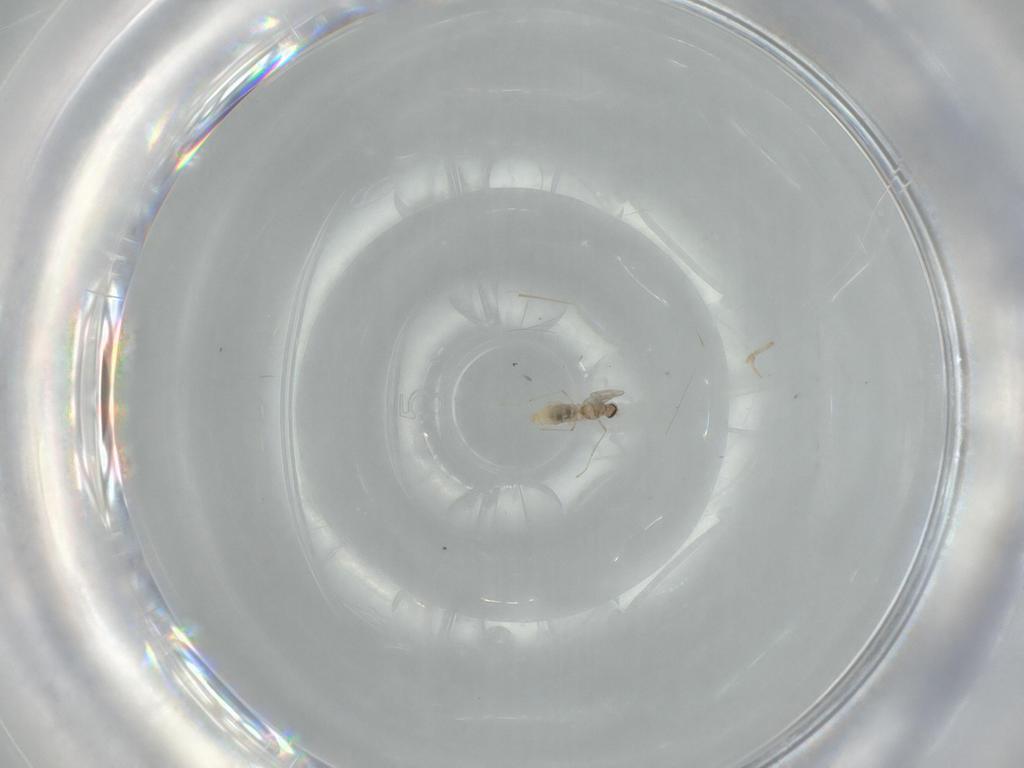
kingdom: Animalia
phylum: Arthropoda
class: Insecta
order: Diptera
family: Cecidomyiidae
